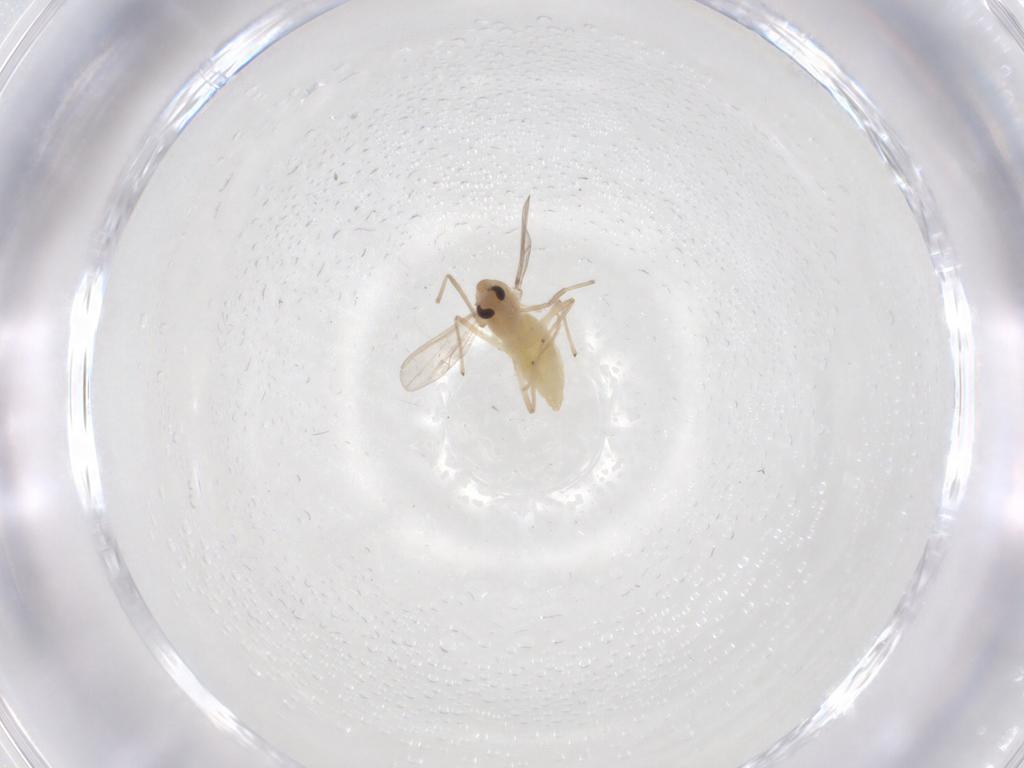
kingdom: Animalia
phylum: Arthropoda
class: Insecta
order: Diptera
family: Chironomidae
